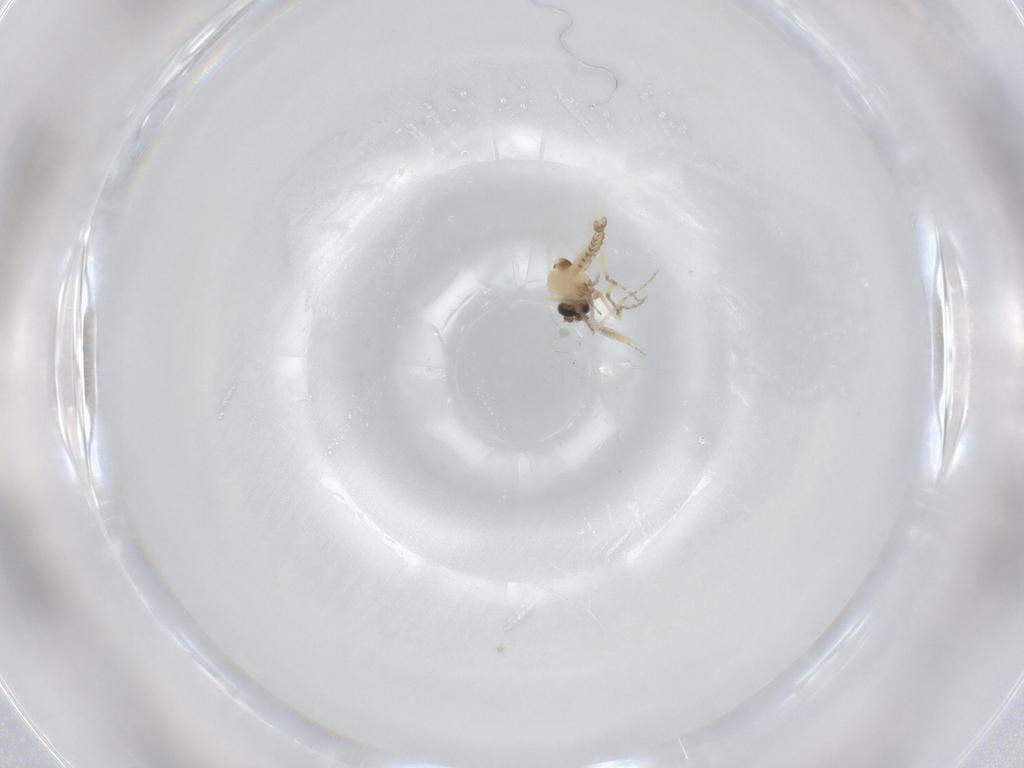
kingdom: Animalia
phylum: Arthropoda
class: Insecta
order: Diptera
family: Ceratopogonidae
